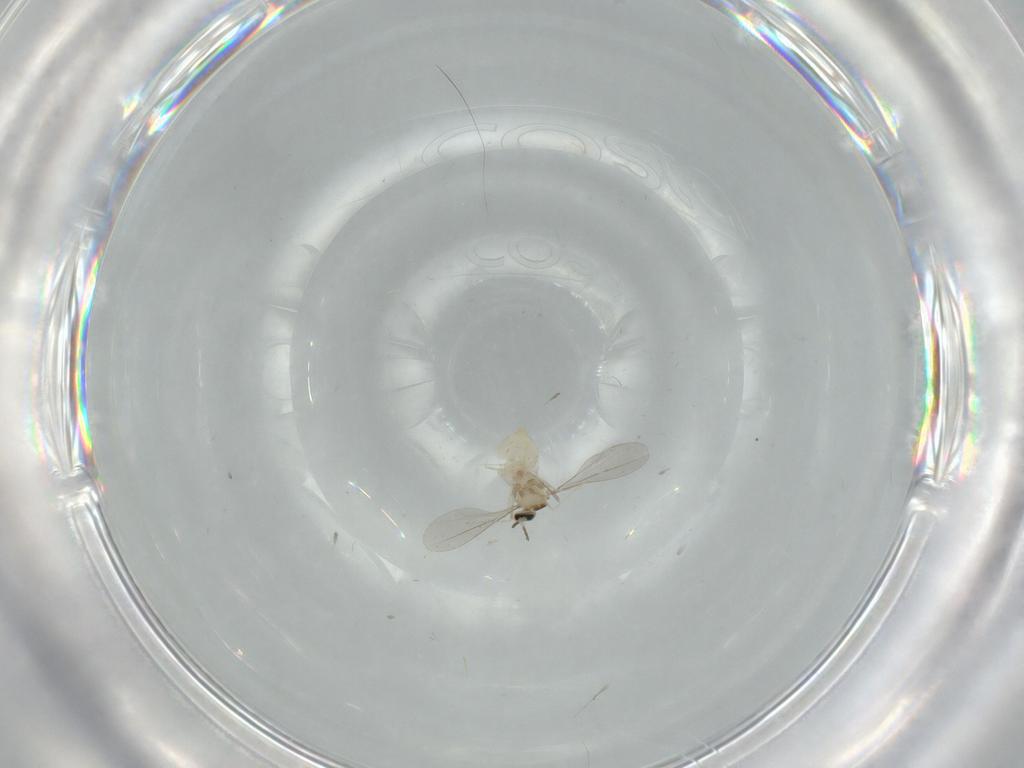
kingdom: Animalia
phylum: Arthropoda
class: Insecta
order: Diptera
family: Cecidomyiidae
